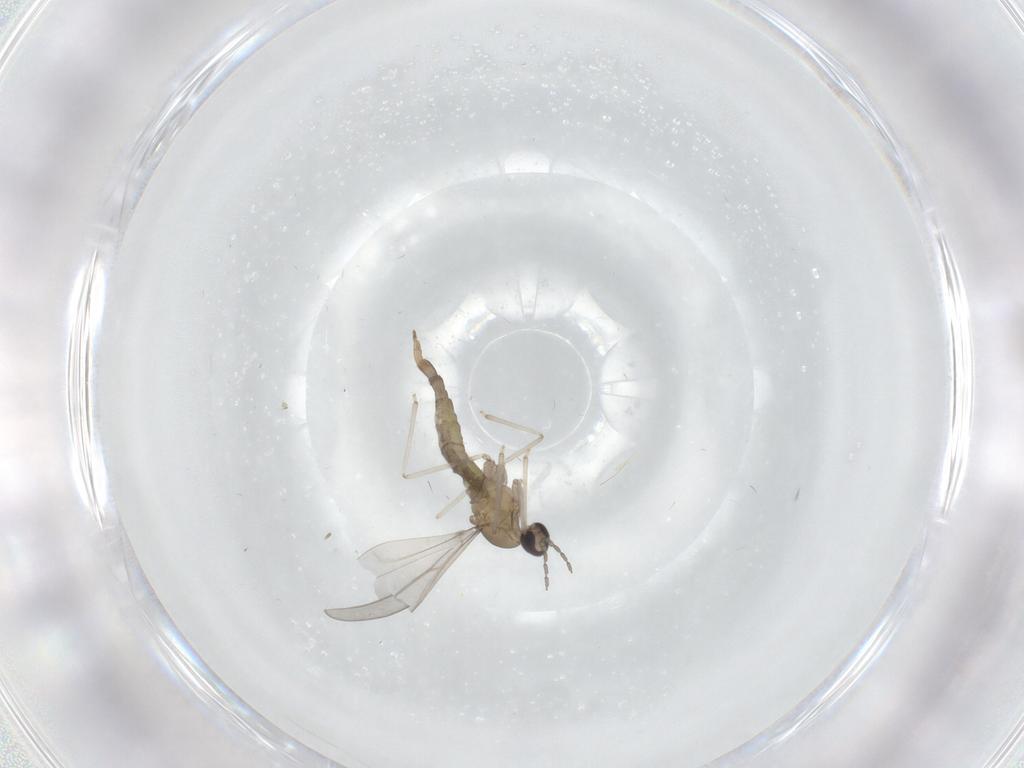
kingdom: Animalia
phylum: Arthropoda
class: Insecta
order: Diptera
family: Cecidomyiidae
